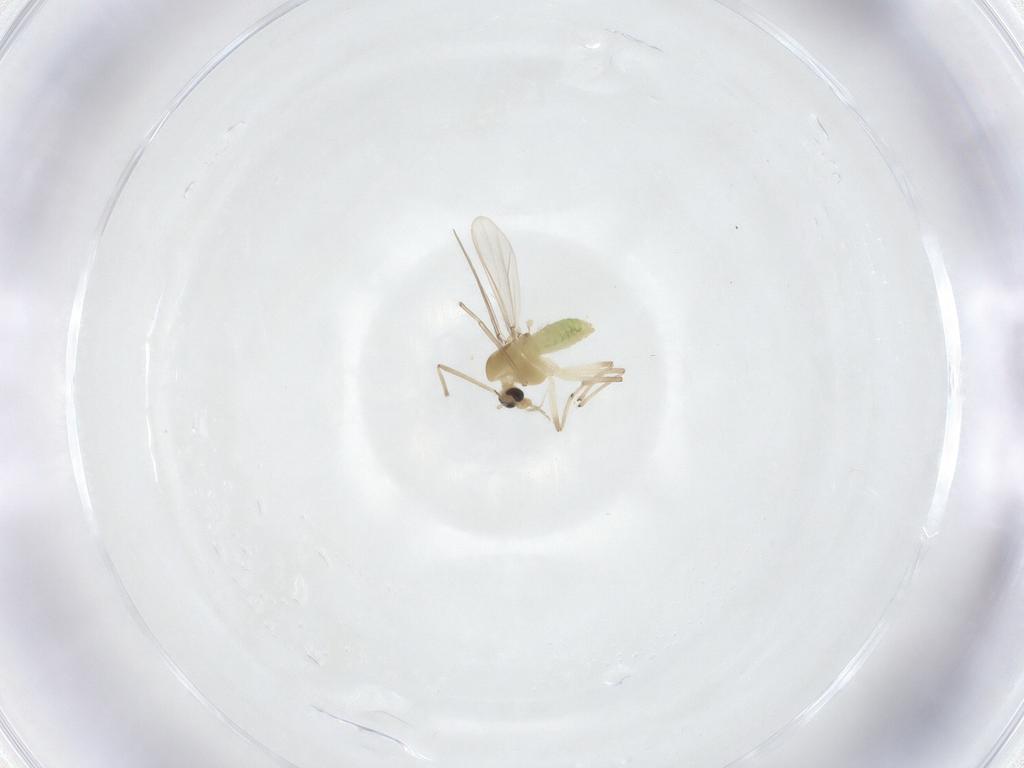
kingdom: Animalia
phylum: Arthropoda
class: Insecta
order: Diptera
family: Chironomidae
